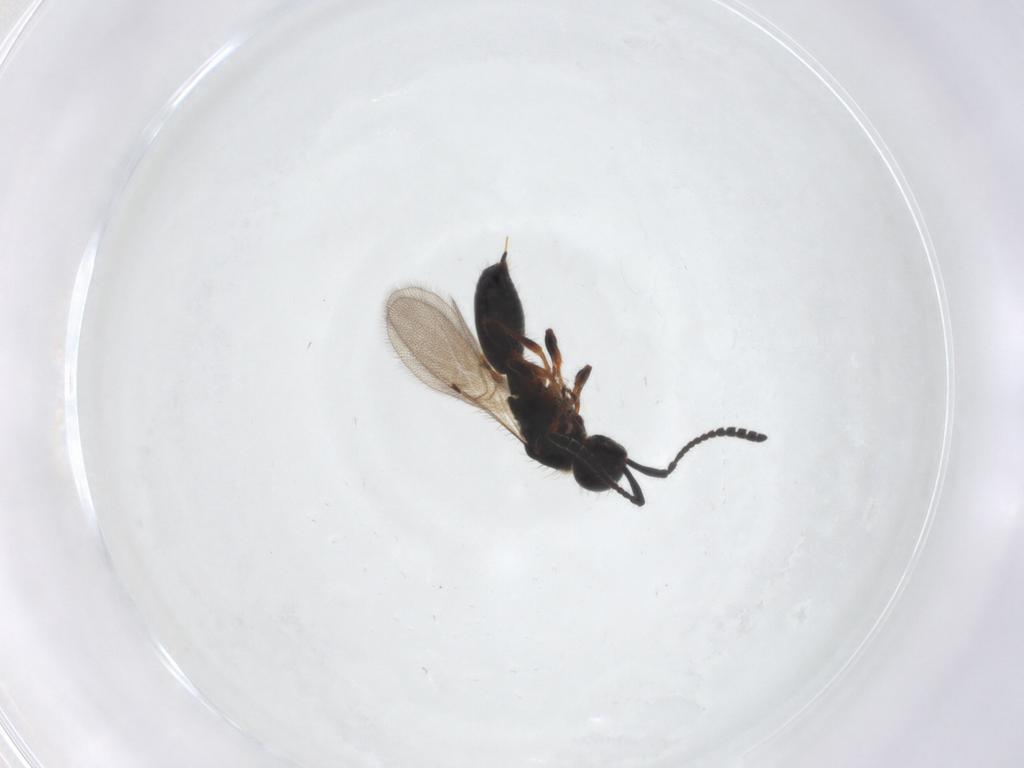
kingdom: Animalia
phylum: Arthropoda
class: Insecta
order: Hymenoptera
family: Diapriidae
